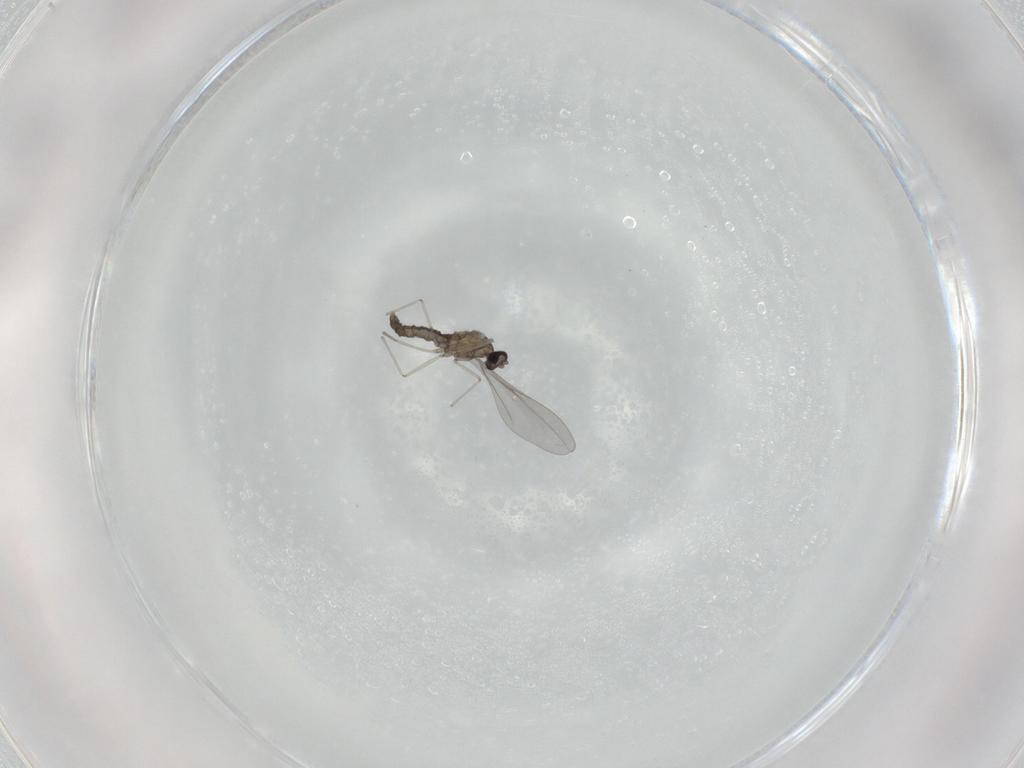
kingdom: Animalia
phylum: Arthropoda
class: Insecta
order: Diptera
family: Cecidomyiidae
